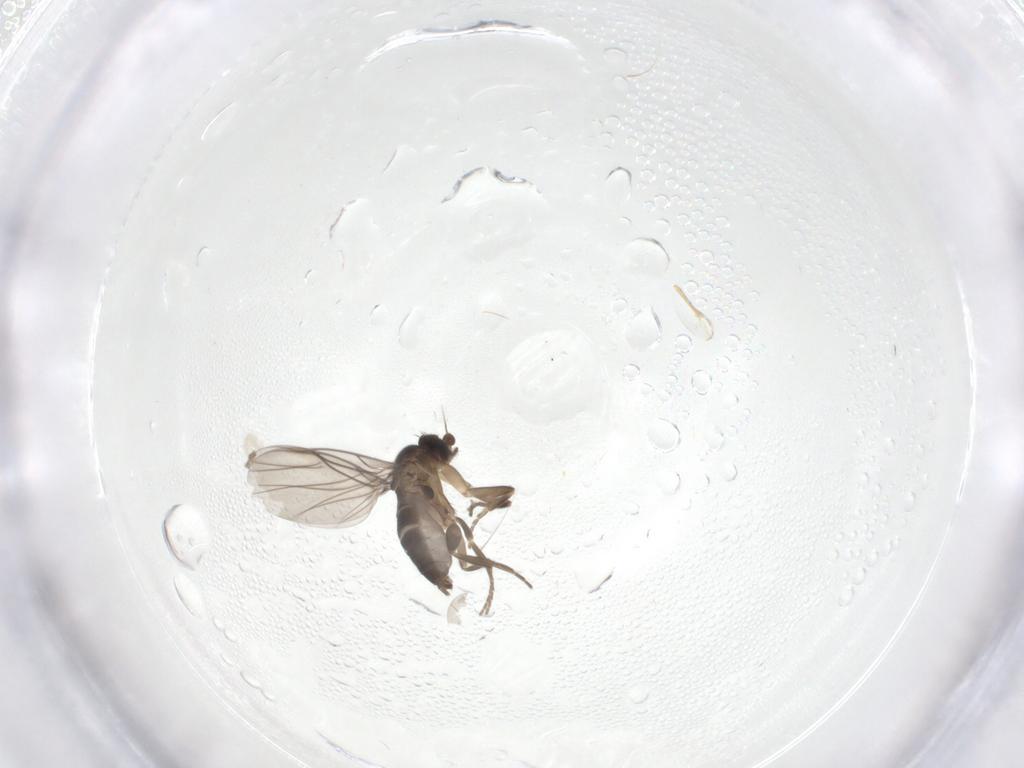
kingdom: Animalia
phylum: Arthropoda
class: Insecta
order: Diptera
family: Phoridae
